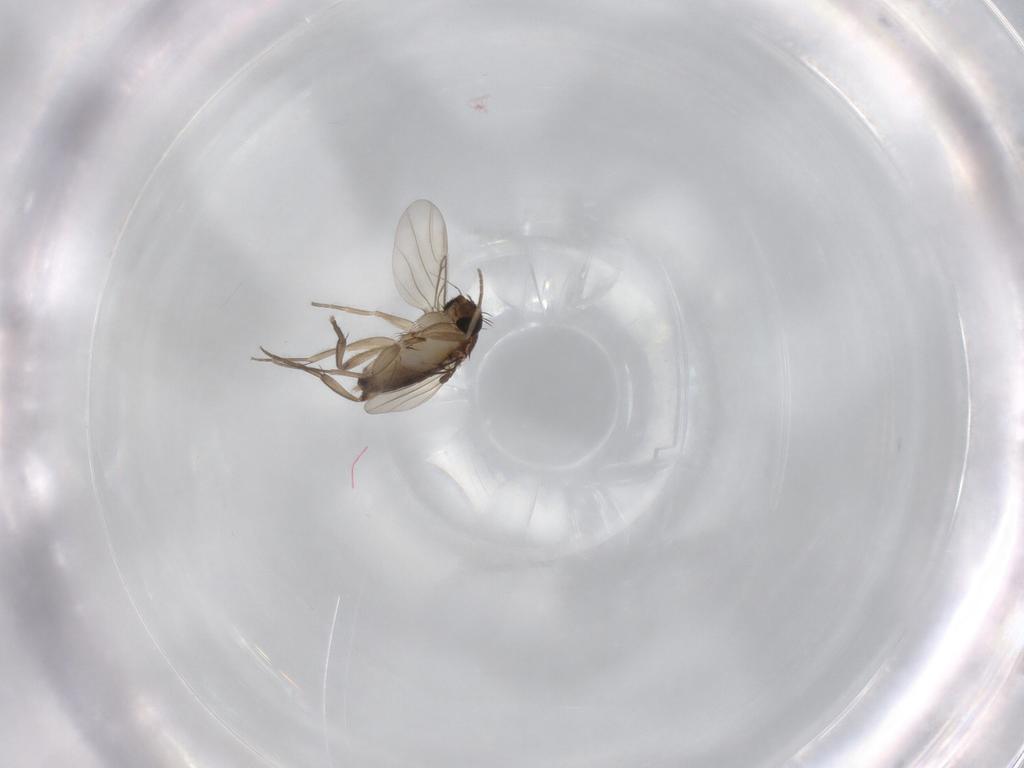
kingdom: Animalia
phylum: Arthropoda
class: Insecta
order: Diptera
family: Phoridae
